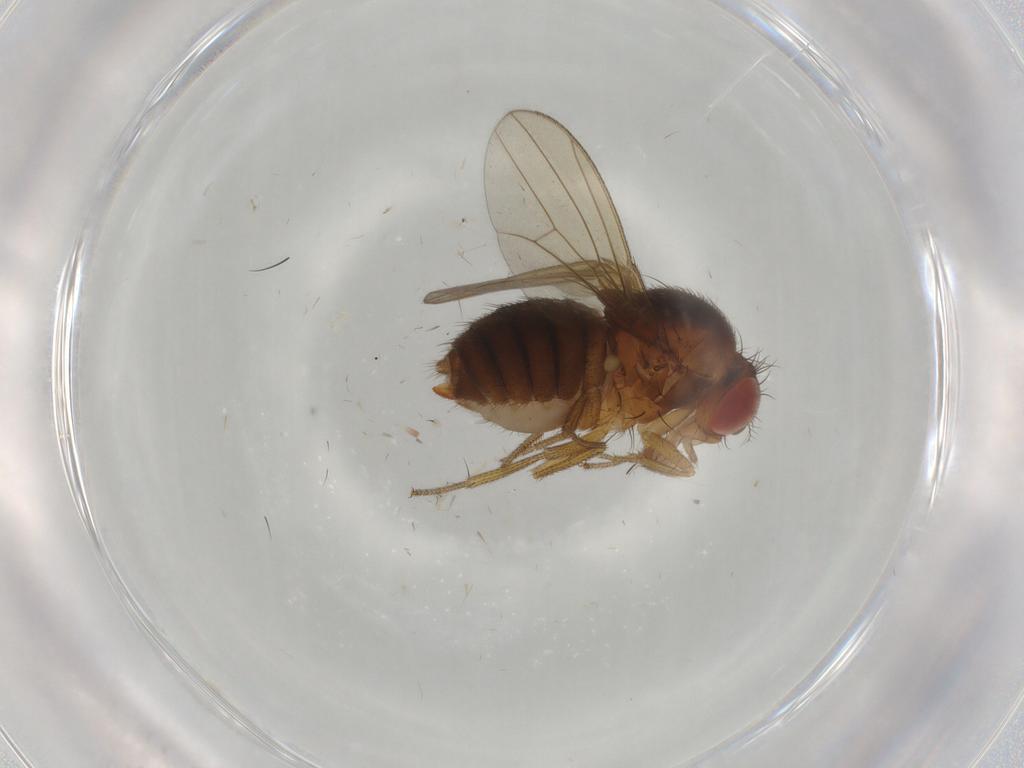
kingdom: Animalia
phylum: Arthropoda
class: Insecta
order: Diptera
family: Drosophilidae
